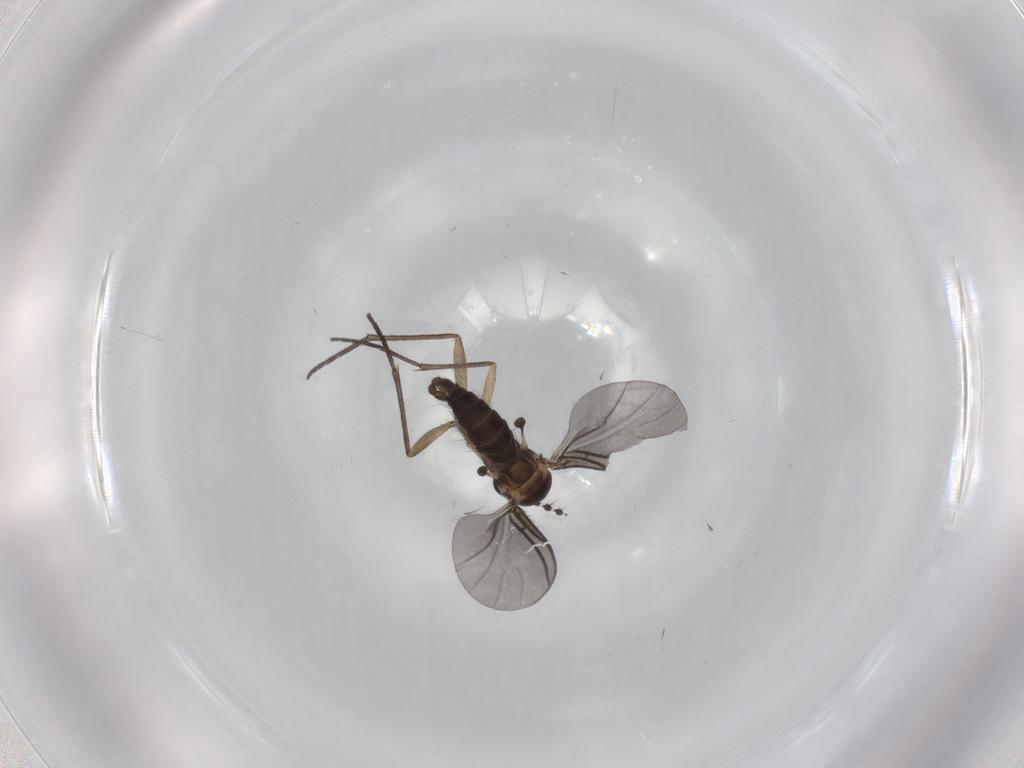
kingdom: Animalia
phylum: Arthropoda
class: Insecta
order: Diptera
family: Sciaridae
